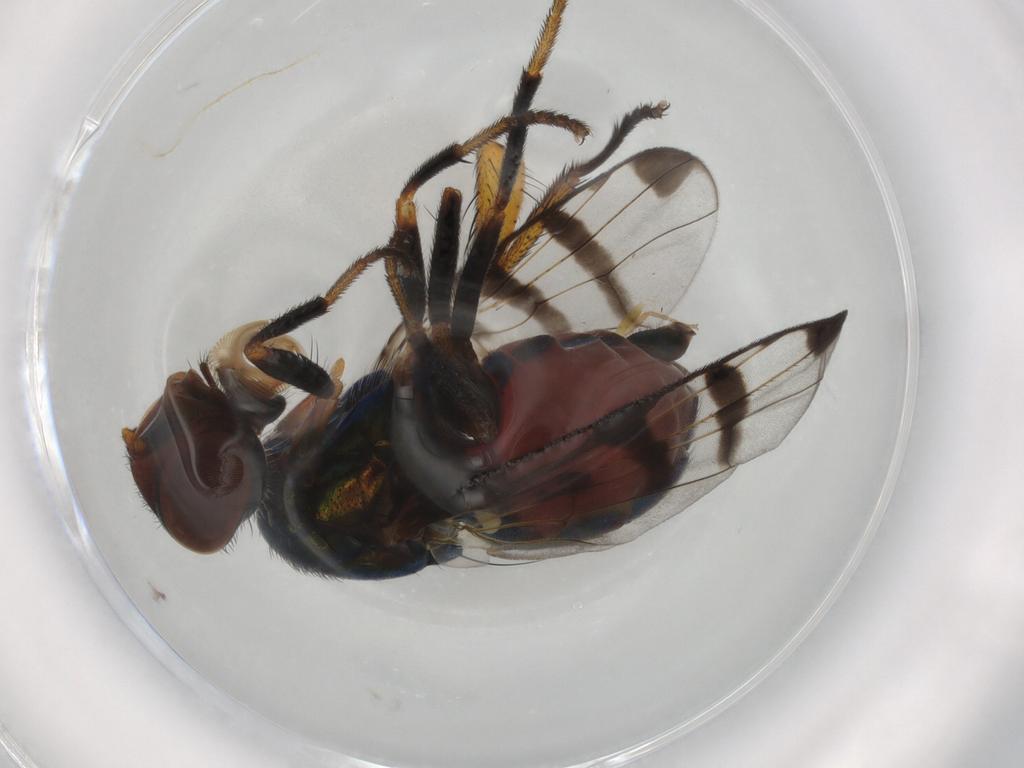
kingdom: Animalia
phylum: Arthropoda
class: Insecta
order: Diptera
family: Platystomatidae
